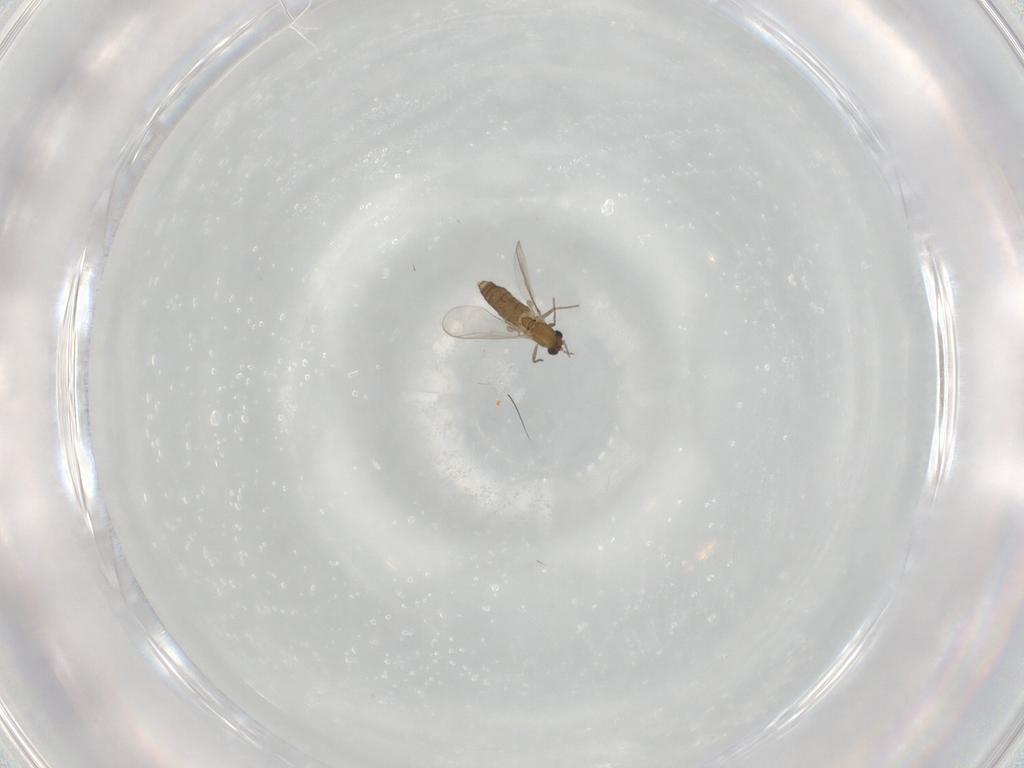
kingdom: Animalia
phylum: Arthropoda
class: Insecta
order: Diptera
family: Chironomidae
